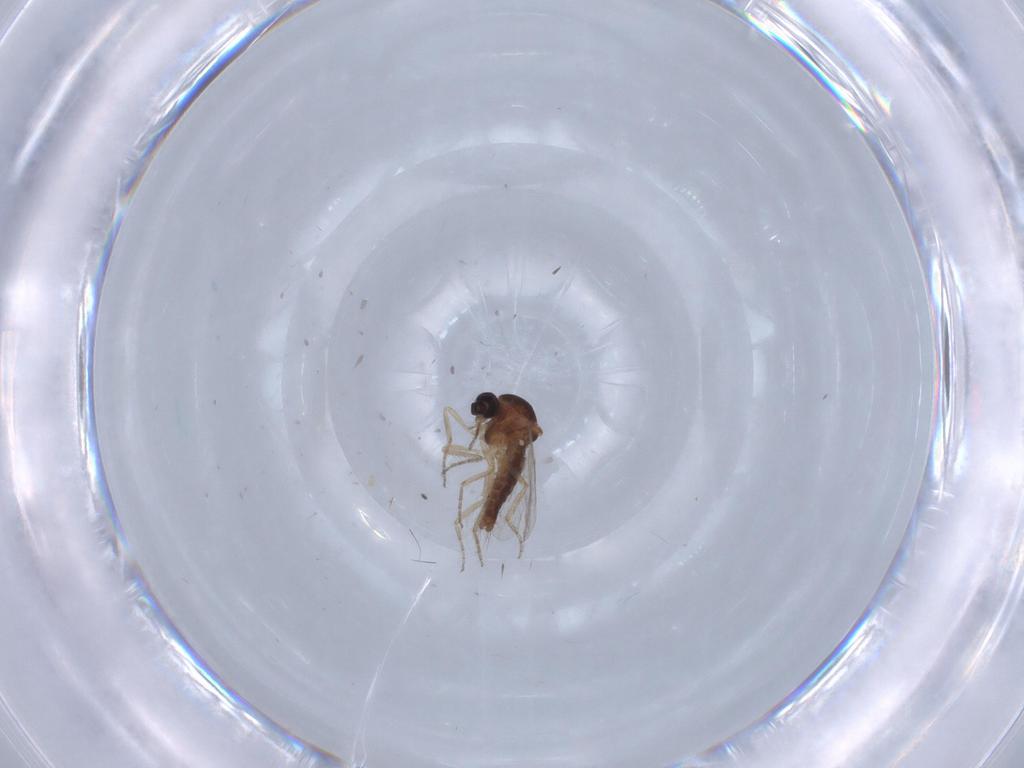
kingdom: Animalia
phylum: Arthropoda
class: Insecta
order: Diptera
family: Ceratopogonidae
